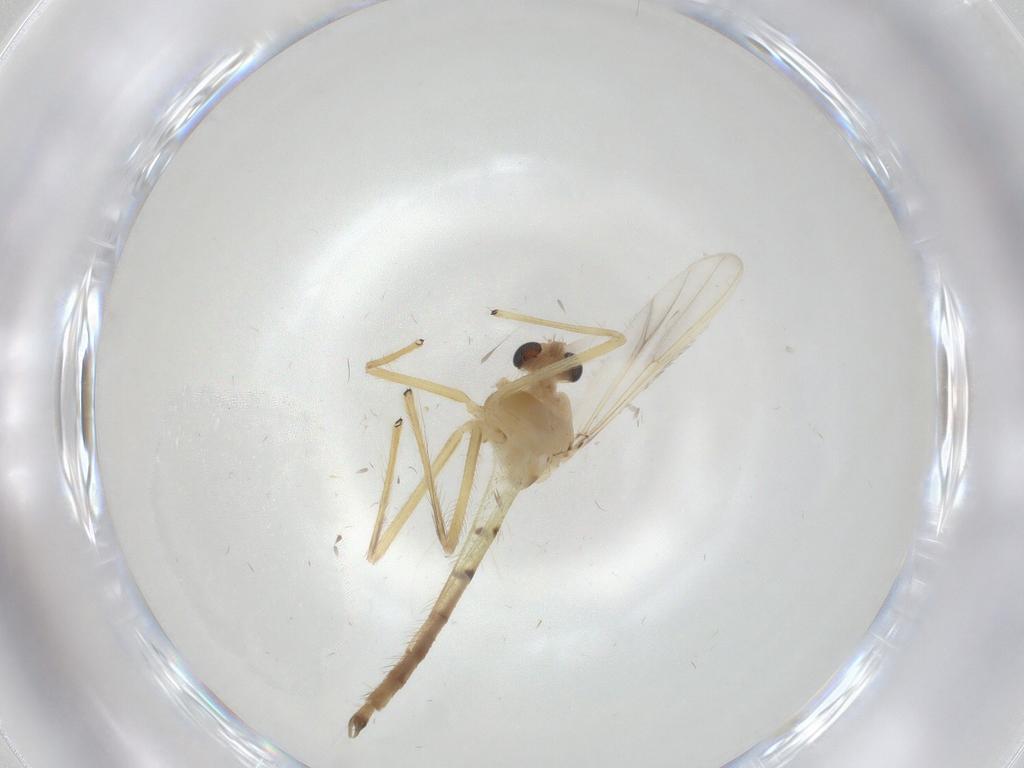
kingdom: Animalia
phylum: Arthropoda
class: Insecta
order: Diptera
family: Chironomidae
